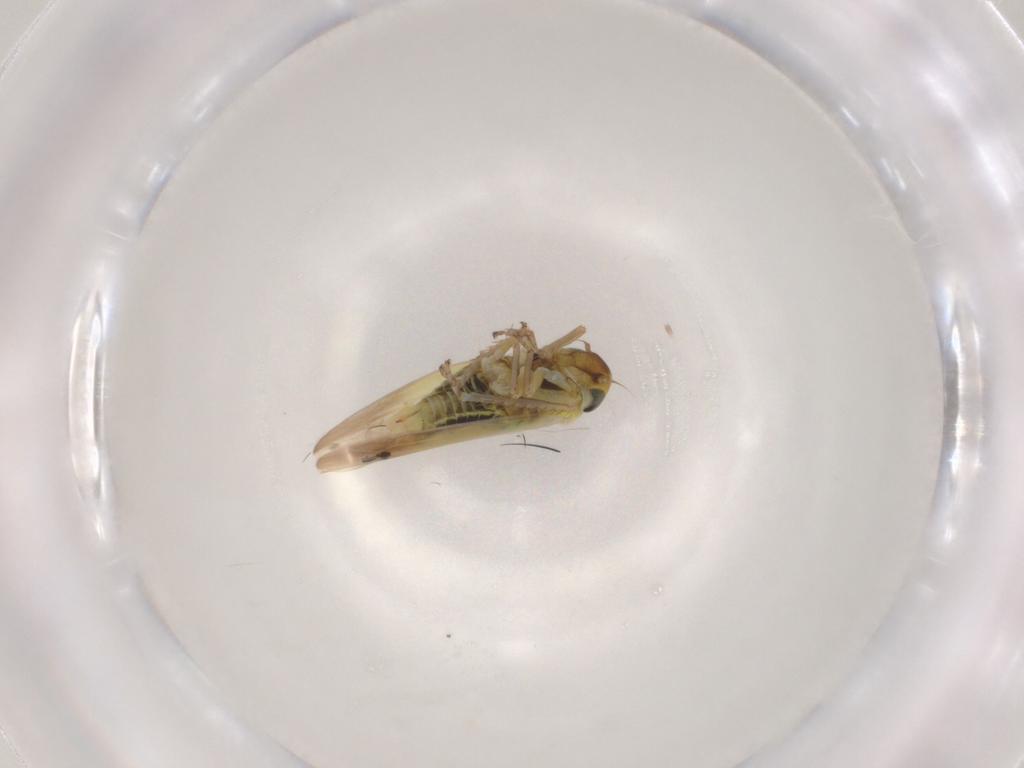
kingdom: Animalia
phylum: Arthropoda
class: Insecta
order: Hemiptera
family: Cicadellidae
